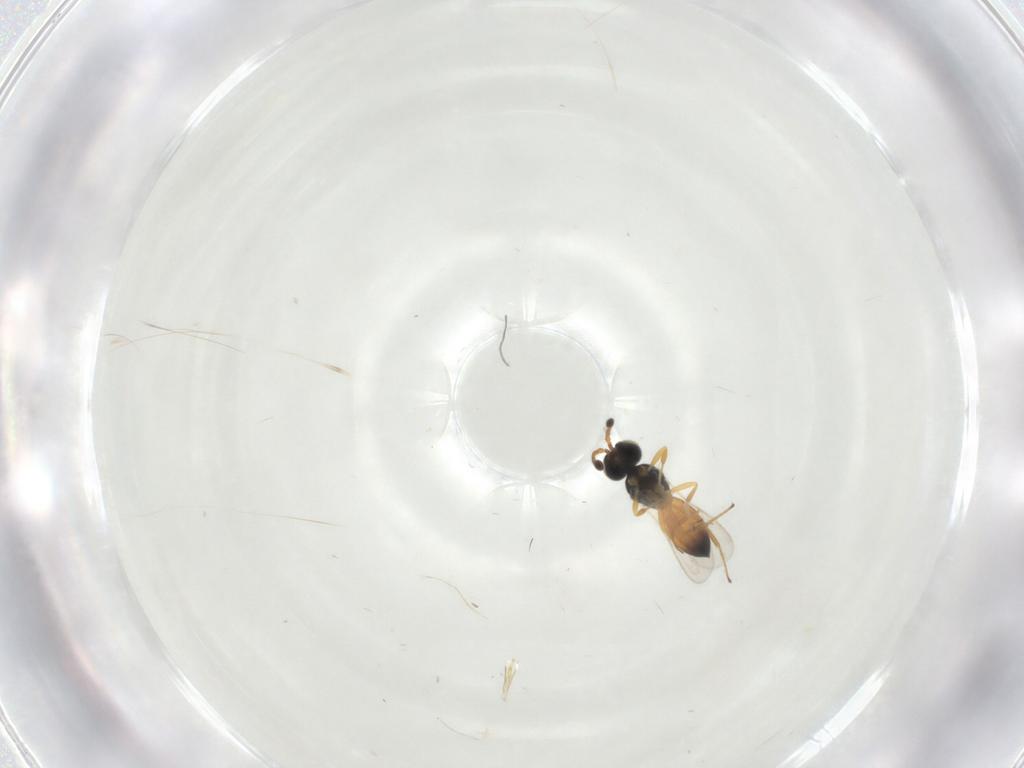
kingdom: Animalia
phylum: Arthropoda
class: Insecta
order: Hymenoptera
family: Scelionidae
